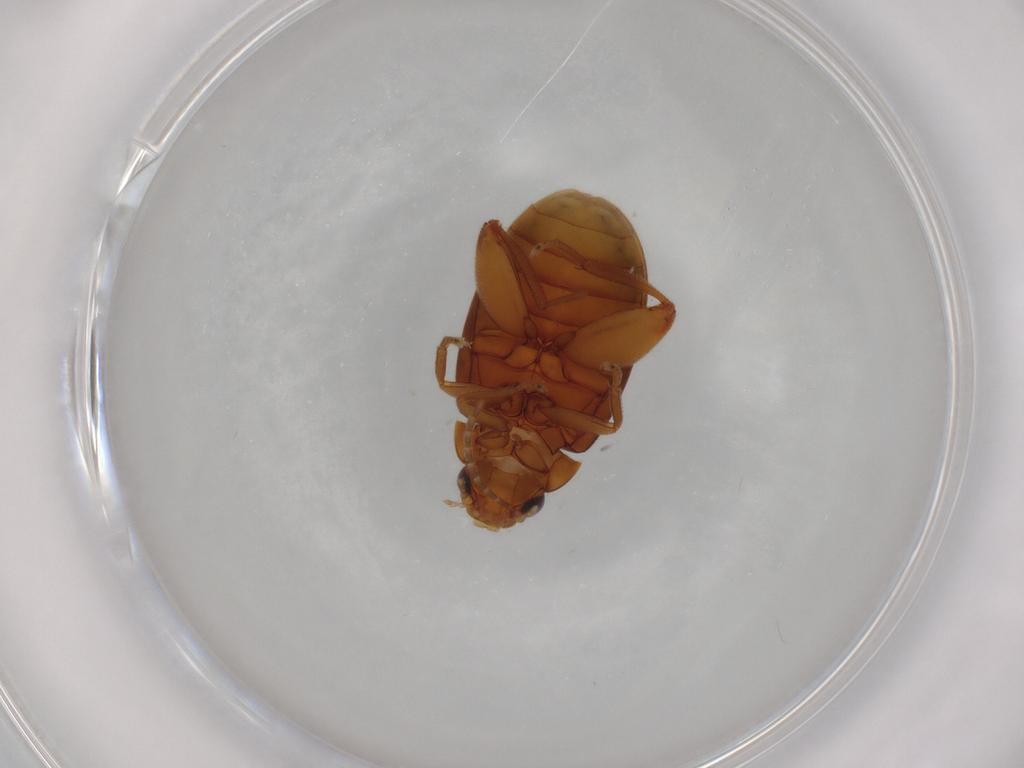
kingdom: Animalia
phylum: Arthropoda
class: Insecta
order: Coleoptera
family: Scirtidae
